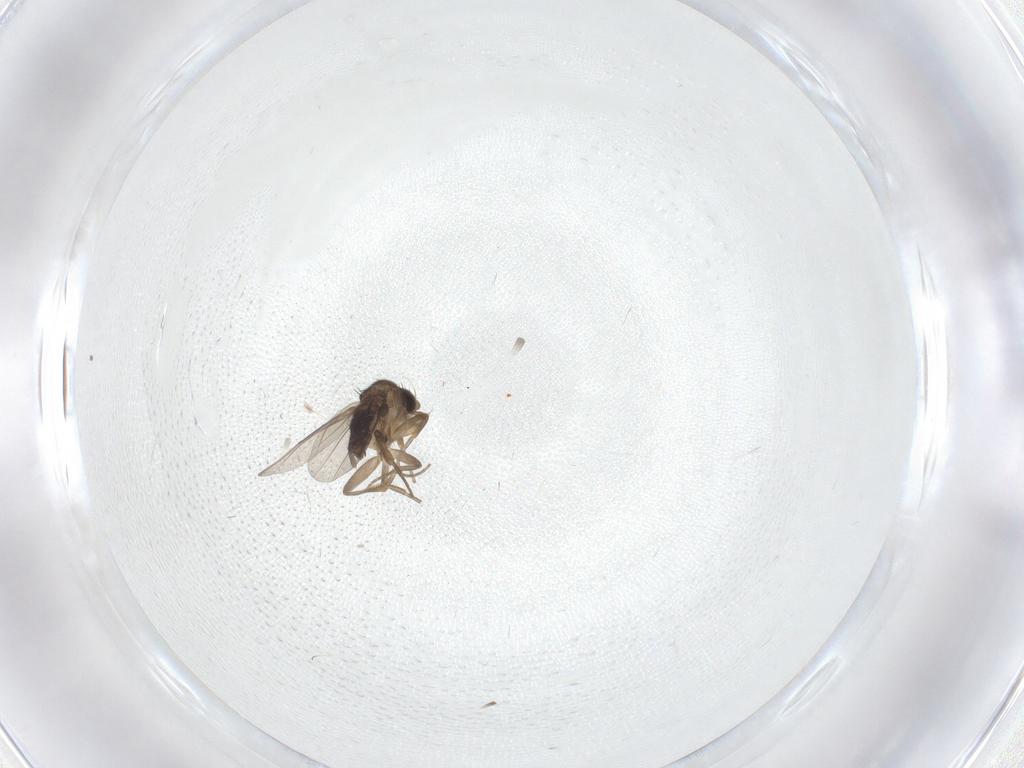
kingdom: Animalia
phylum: Arthropoda
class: Insecta
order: Diptera
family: Phoridae
